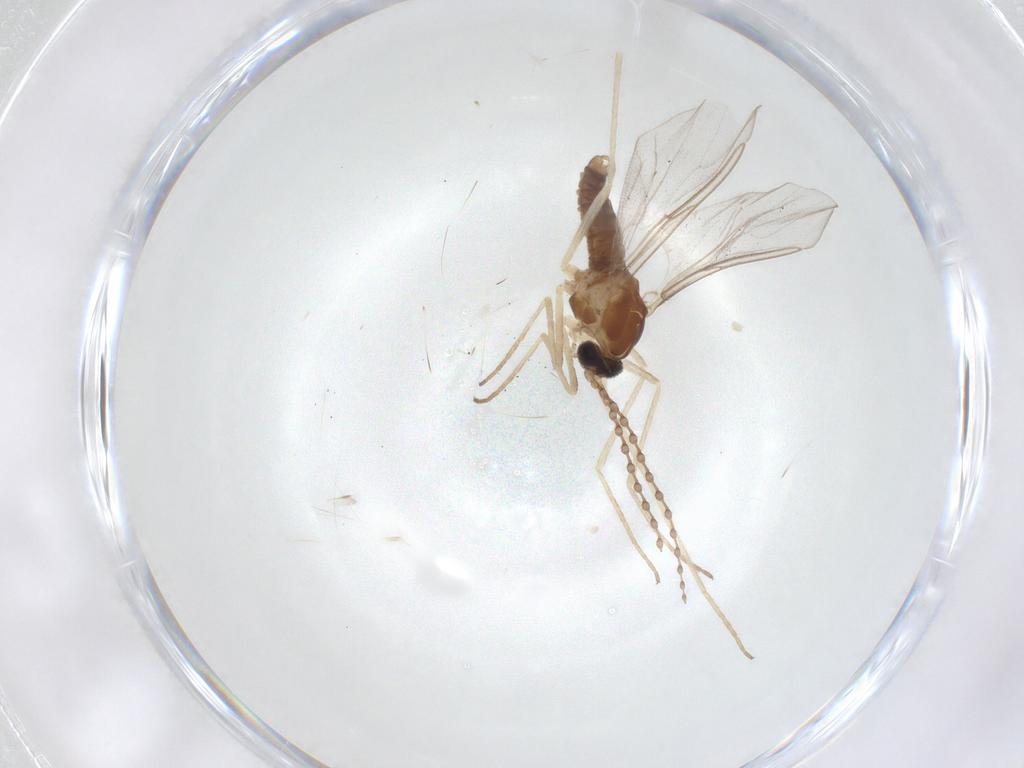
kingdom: Animalia
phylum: Arthropoda
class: Insecta
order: Diptera
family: Cecidomyiidae
